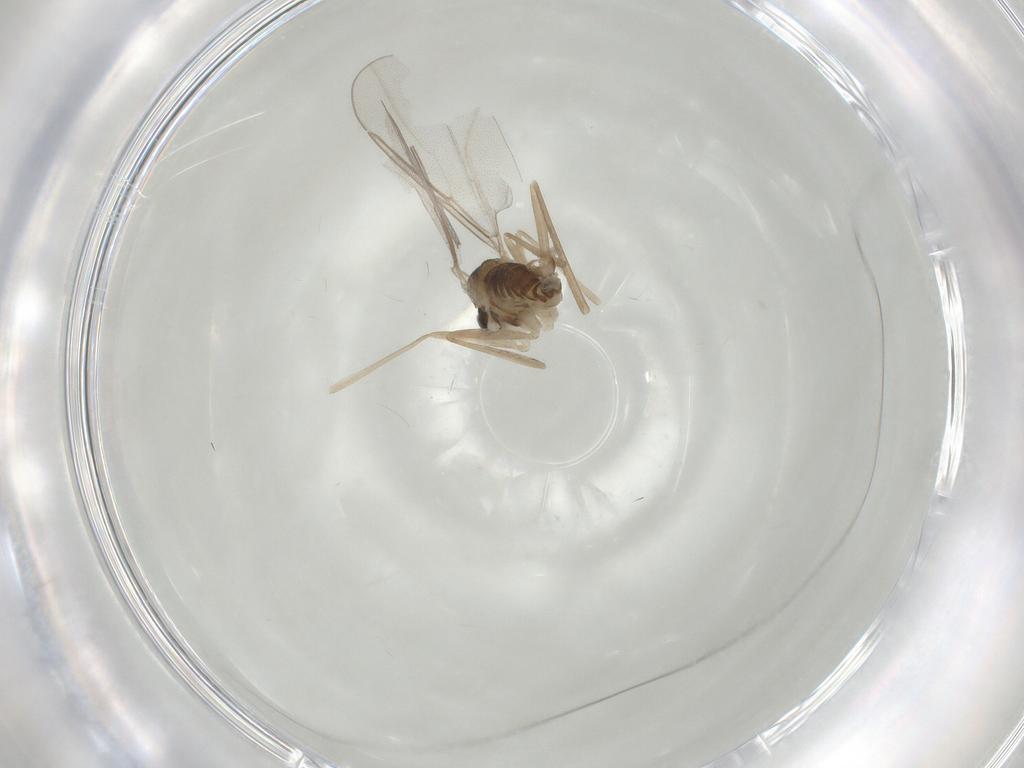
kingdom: Animalia
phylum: Arthropoda
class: Insecta
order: Diptera
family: Cecidomyiidae
